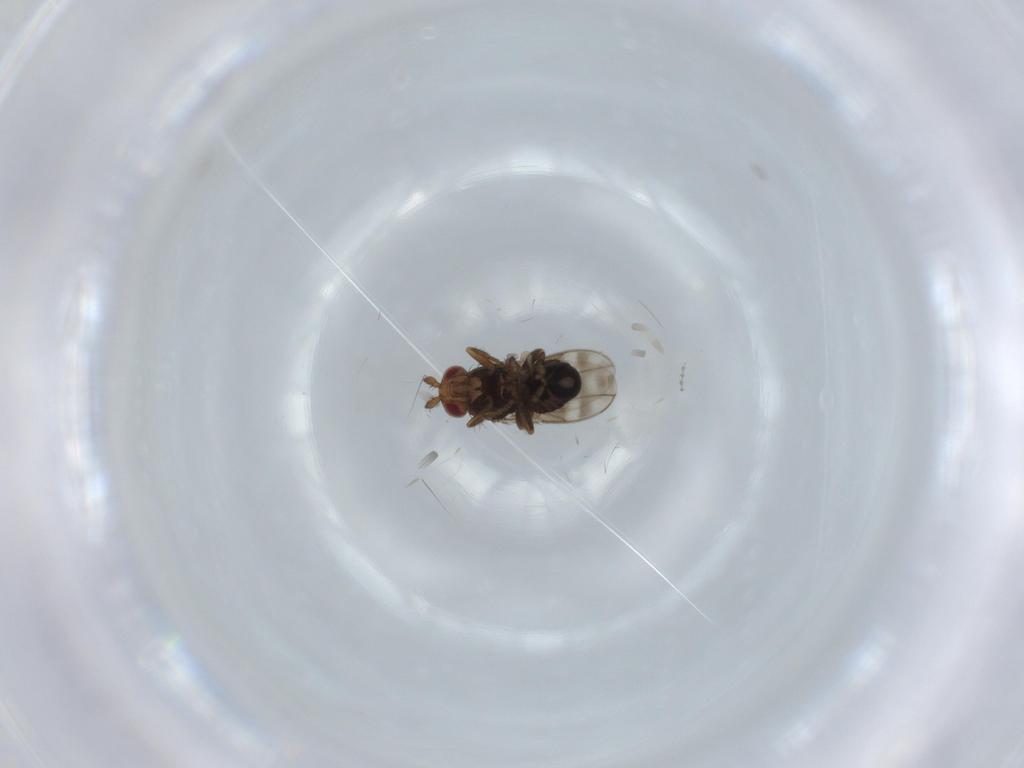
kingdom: Animalia
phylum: Arthropoda
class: Insecta
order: Diptera
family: Sphaeroceridae
